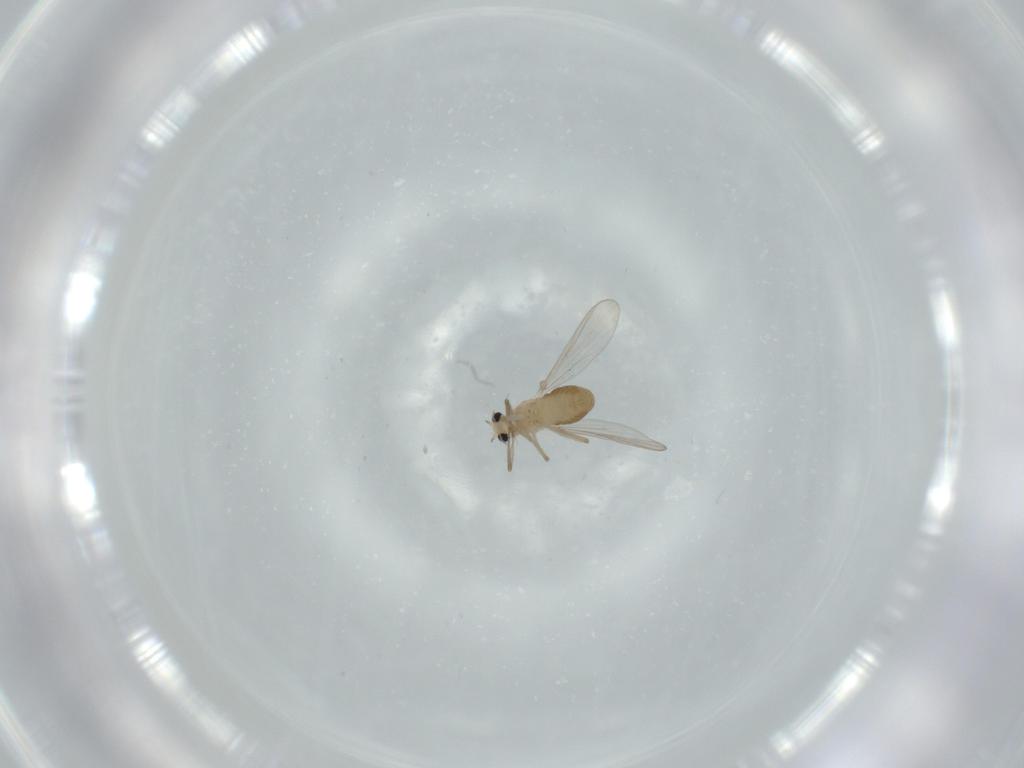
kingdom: Animalia
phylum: Arthropoda
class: Insecta
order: Diptera
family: Chironomidae
